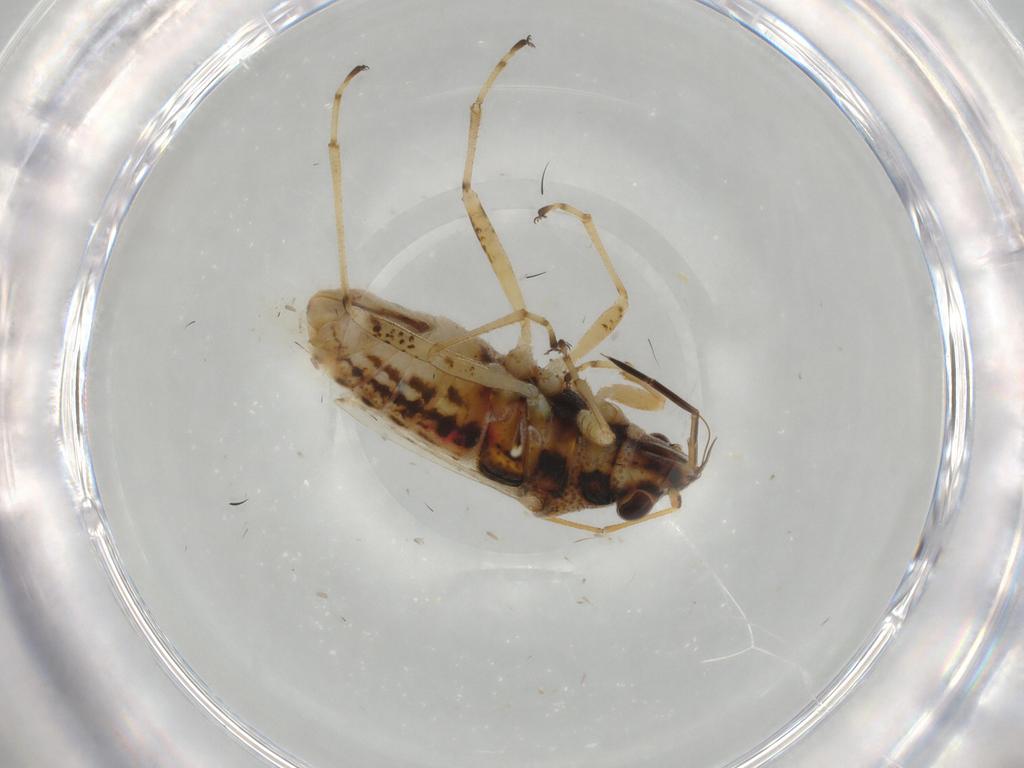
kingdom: Animalia
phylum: Arthropoda
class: Insecta
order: Hemiptera
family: Lygaeidae
